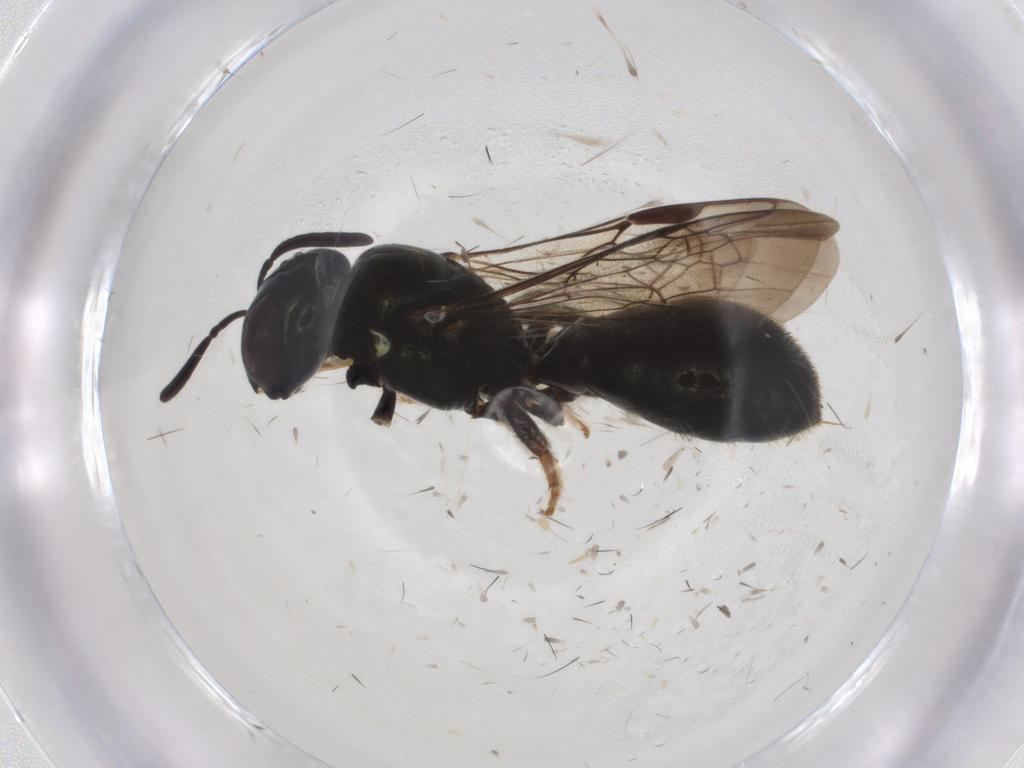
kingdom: Animalia
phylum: Arthropoda
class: Insecta
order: Hymenoptera
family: Apidae
